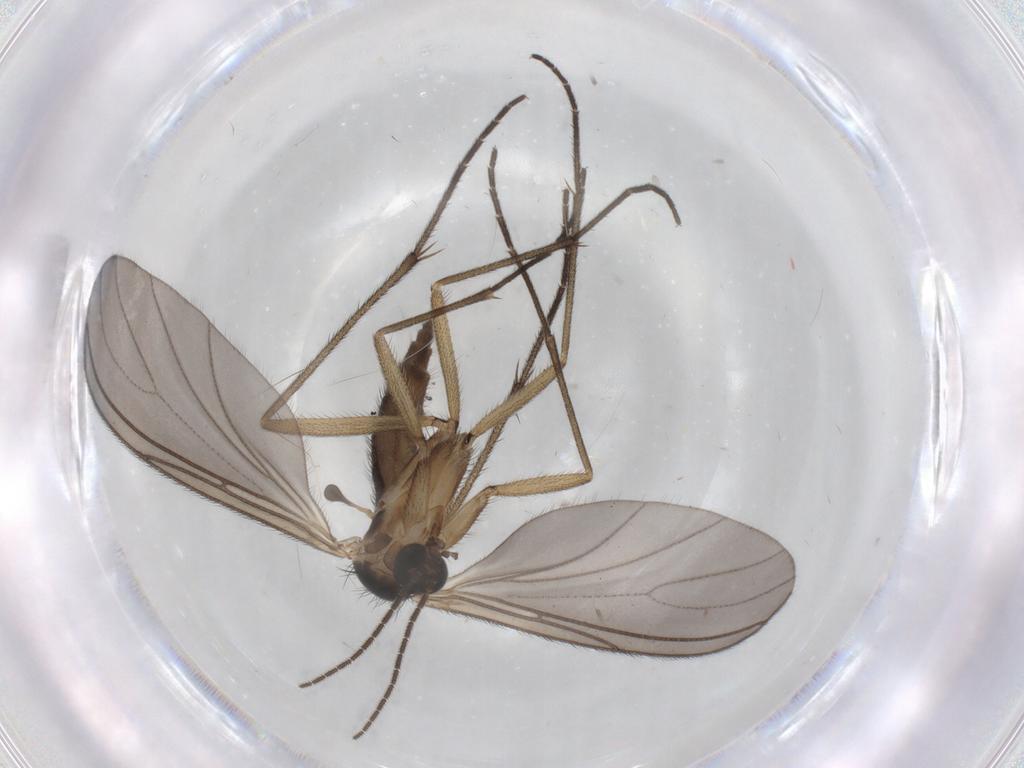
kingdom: Animalia
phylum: Arthropoda
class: Insecta
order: Diptera
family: Sciaridae
